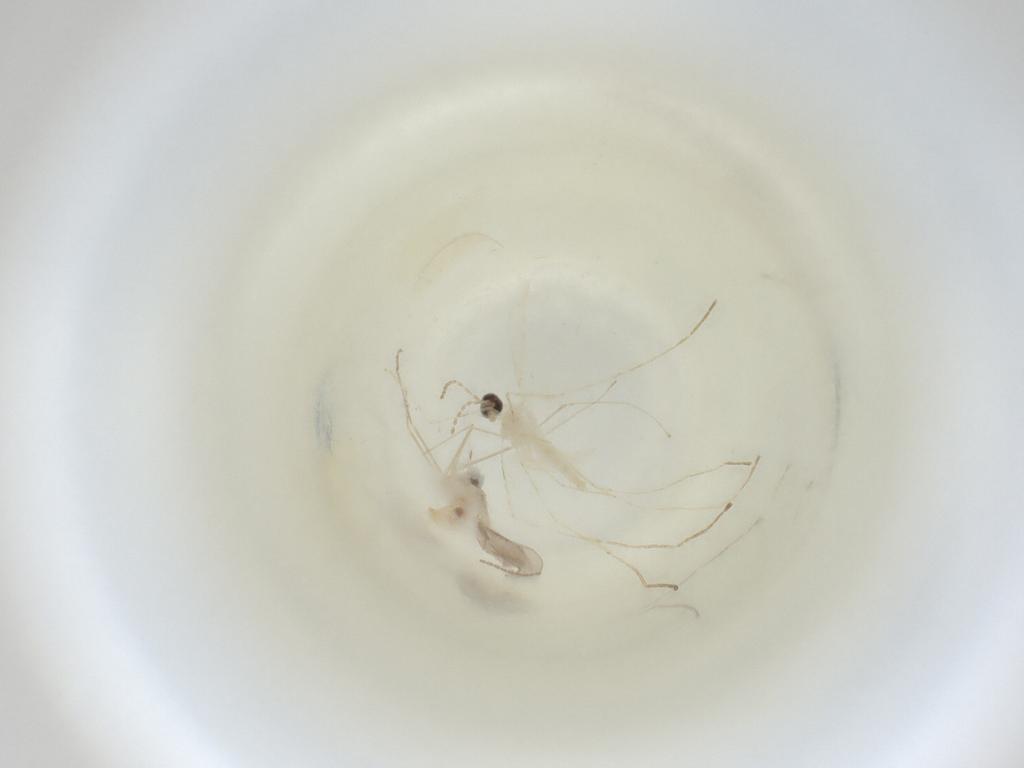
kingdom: Animalia
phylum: Arthropoda
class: Insecta
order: Diptera
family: Cecidomyiidae
